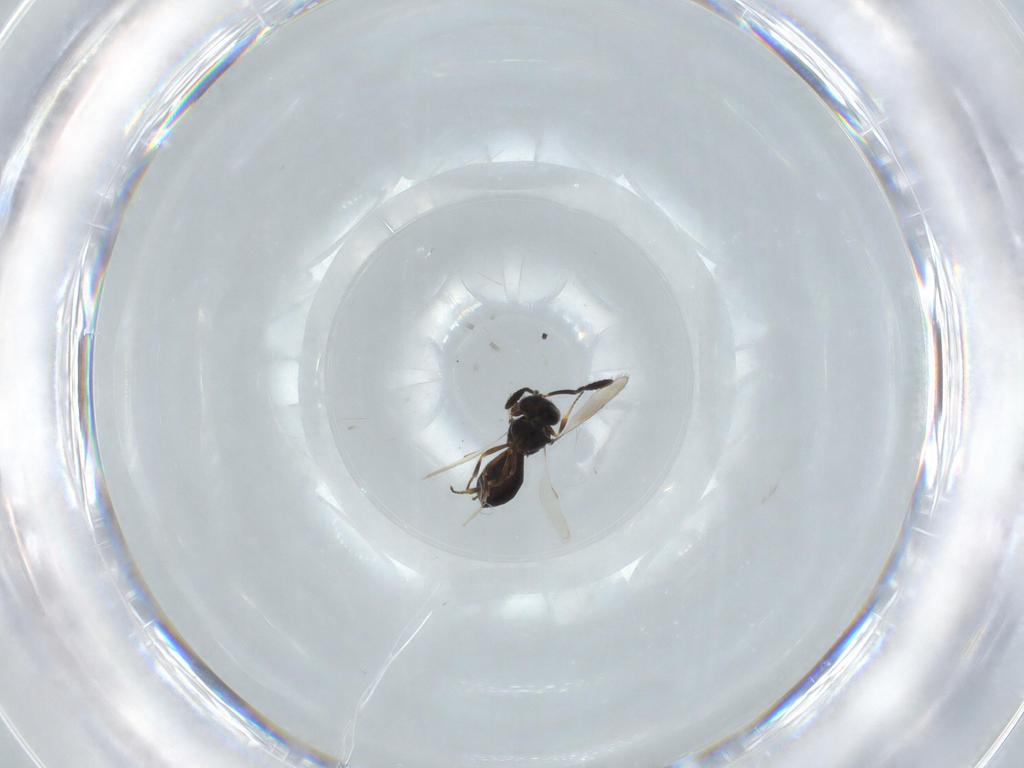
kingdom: Animalia
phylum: Arthropoda
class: Insecta
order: Hymenoptera
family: Scelionidae
